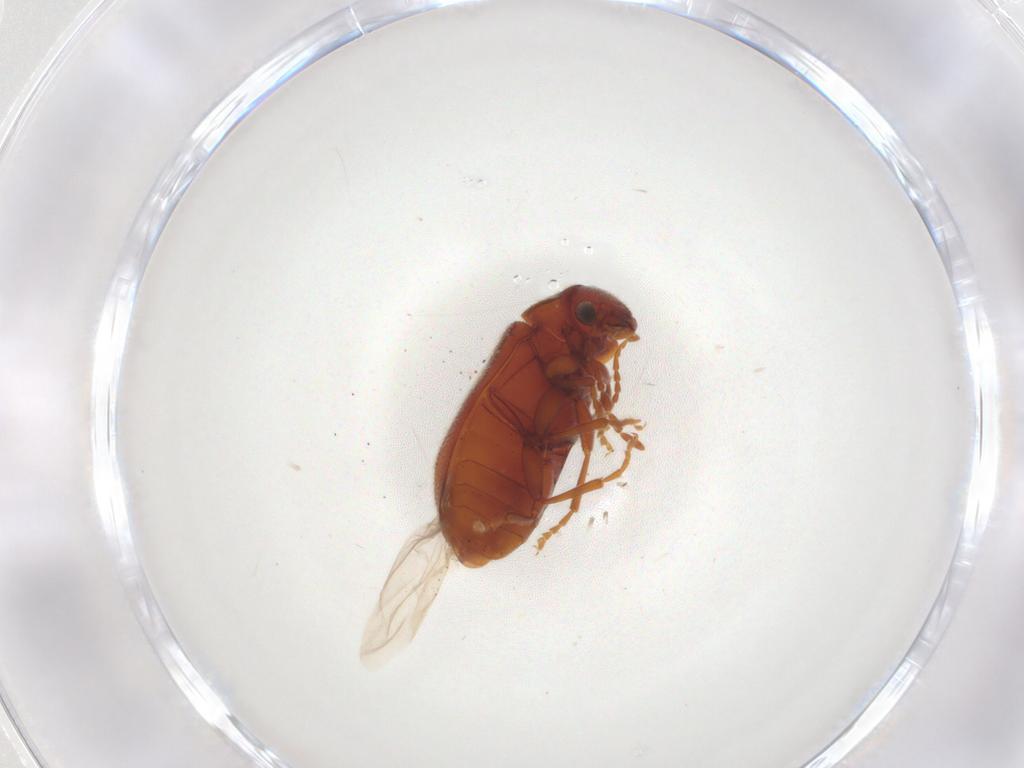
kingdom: Animalia
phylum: Arthropoda
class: Insecta
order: Coleoptera
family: Ptinidae
